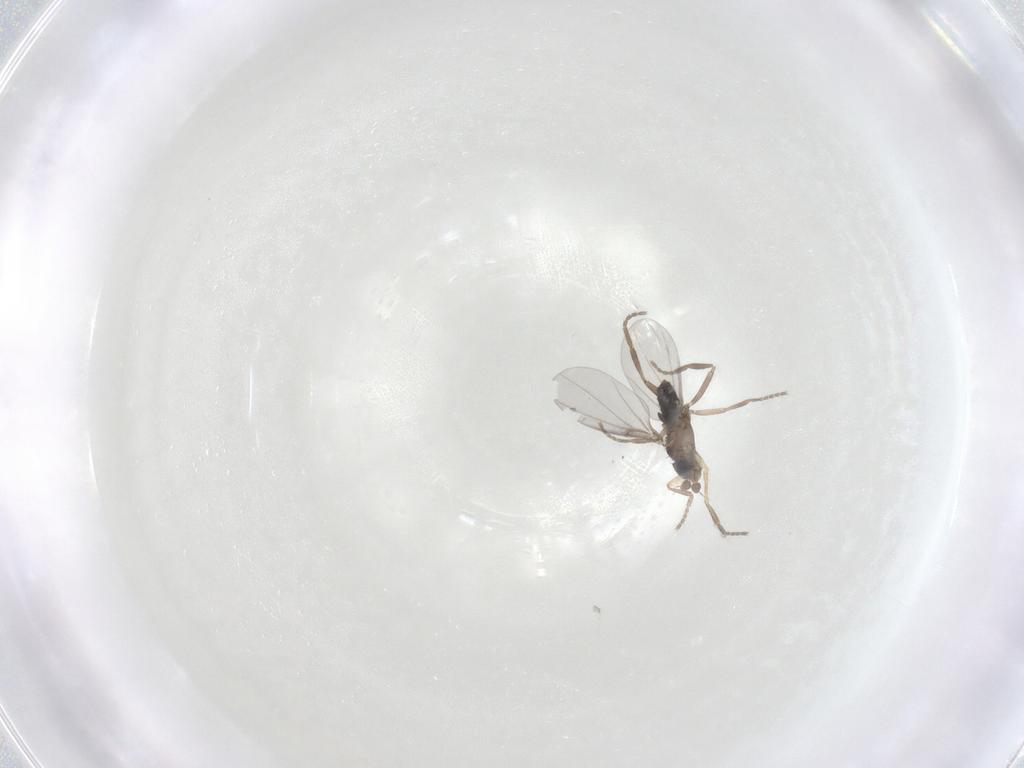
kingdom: Animalia
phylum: Arthropoda
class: Insecta
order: Diptera
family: Phoridae
